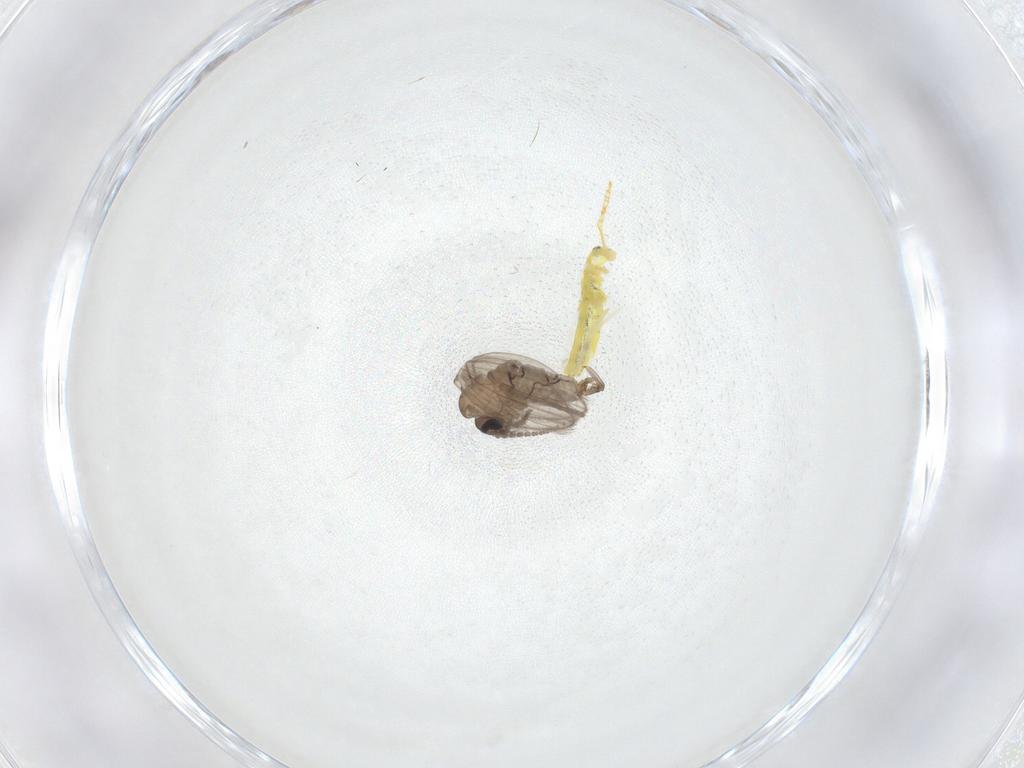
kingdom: Animalia
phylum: Arthropoda
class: Insecta
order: Diptera
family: Psychodidae
